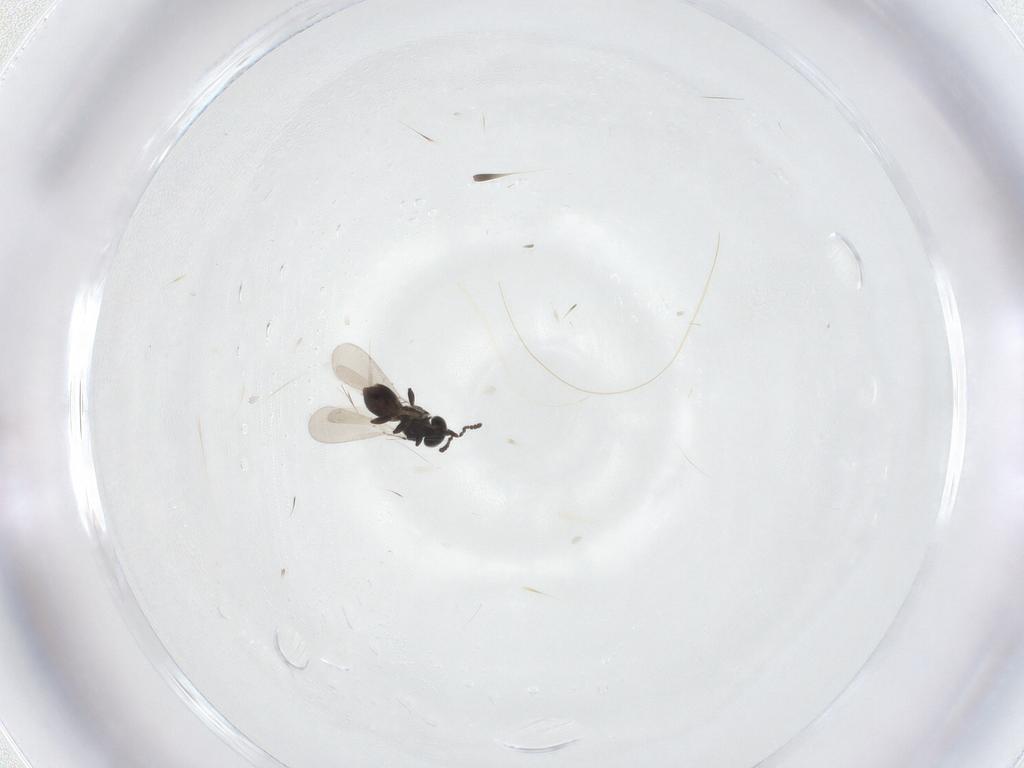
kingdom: Animalia
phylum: Arthropoda
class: Insecta
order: Hymenoptera
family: Platygastridae
